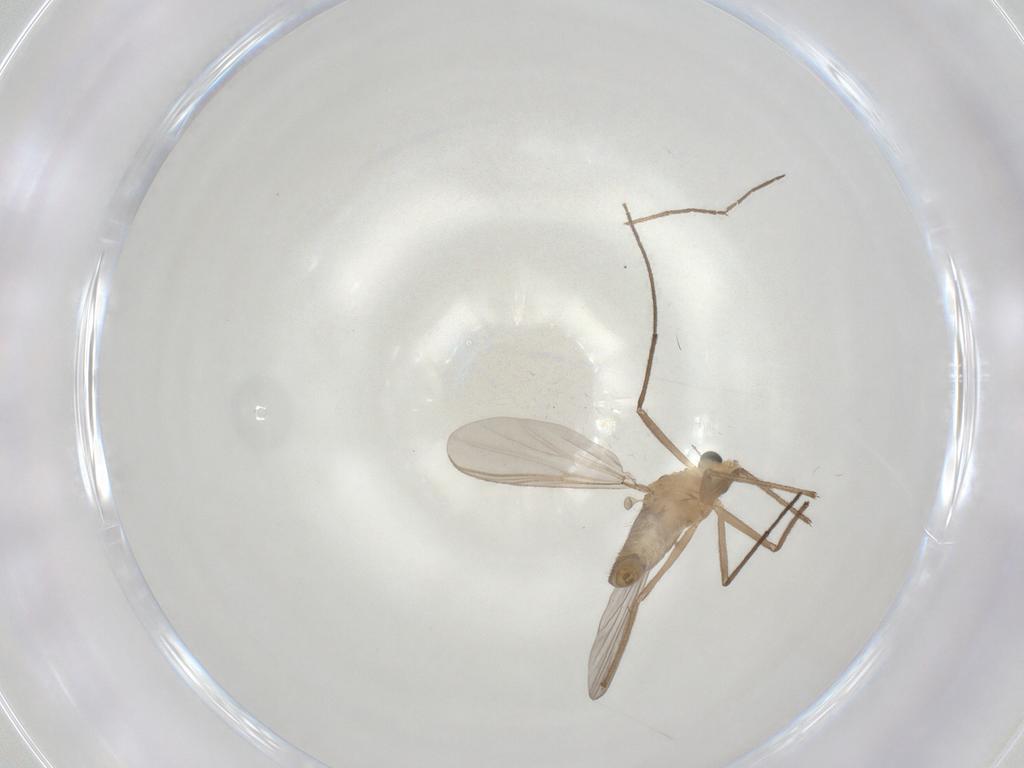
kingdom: Animalia
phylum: Arthropoda
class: Insecta
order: Diptera
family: Chironomidae
